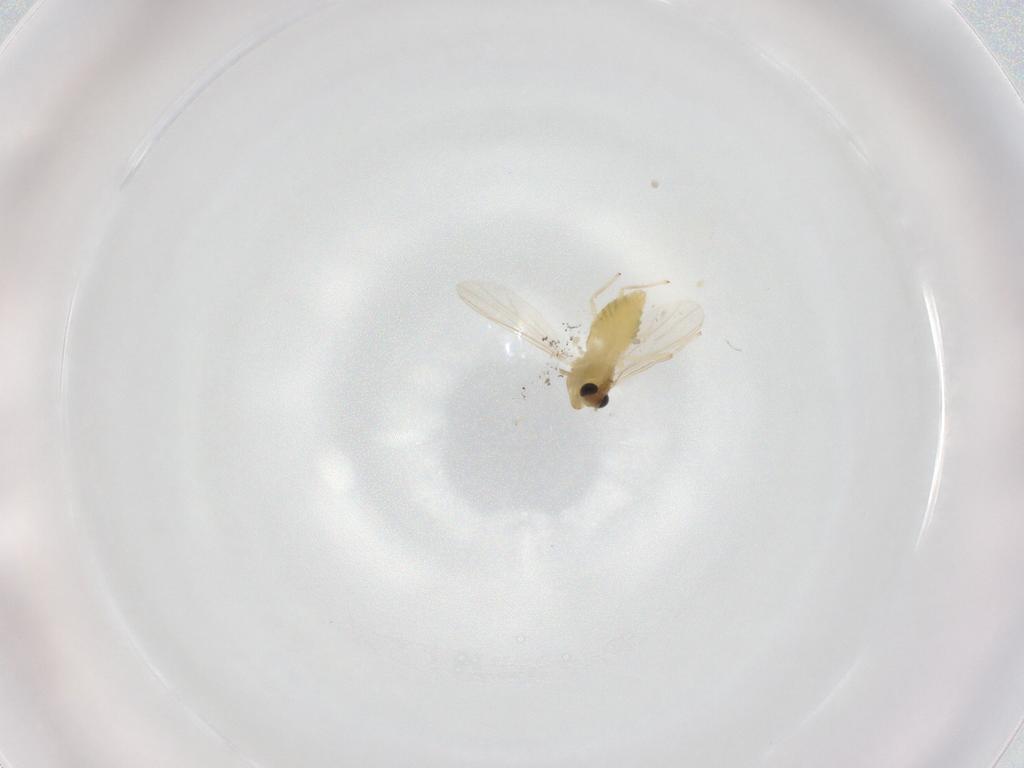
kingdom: Animalia
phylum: Arthropoda
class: Insecta
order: Diptera
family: Chironomidae
